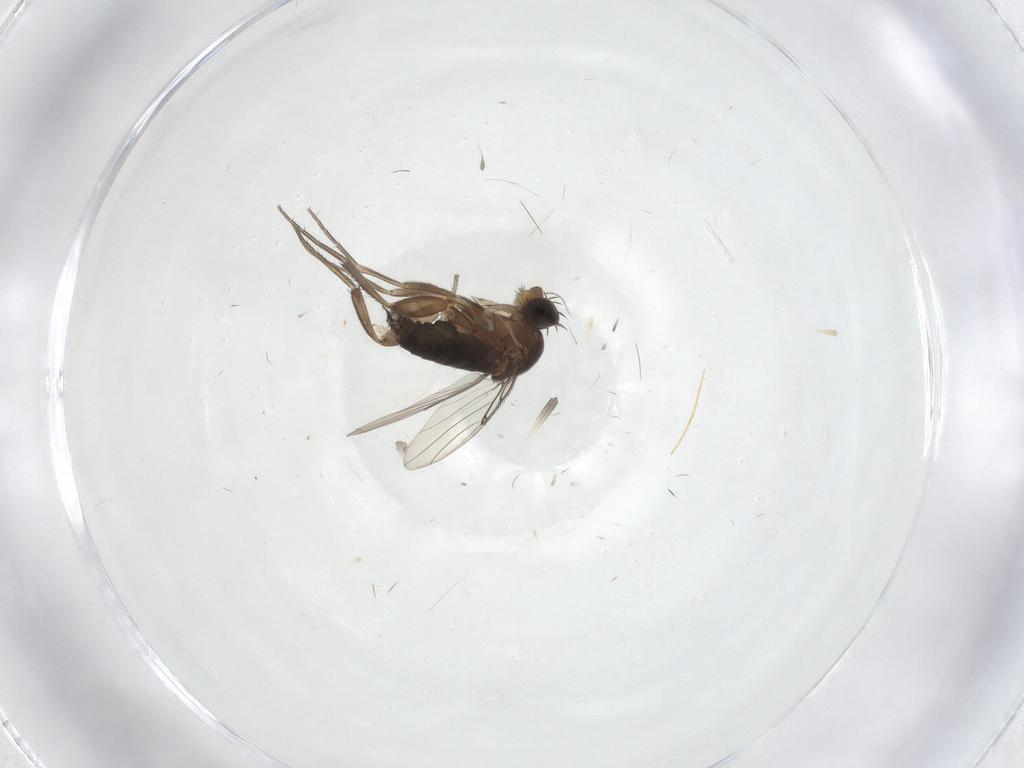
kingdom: Animalia
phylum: Arthropoda
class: Insecta
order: Diptera
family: Phoridae
